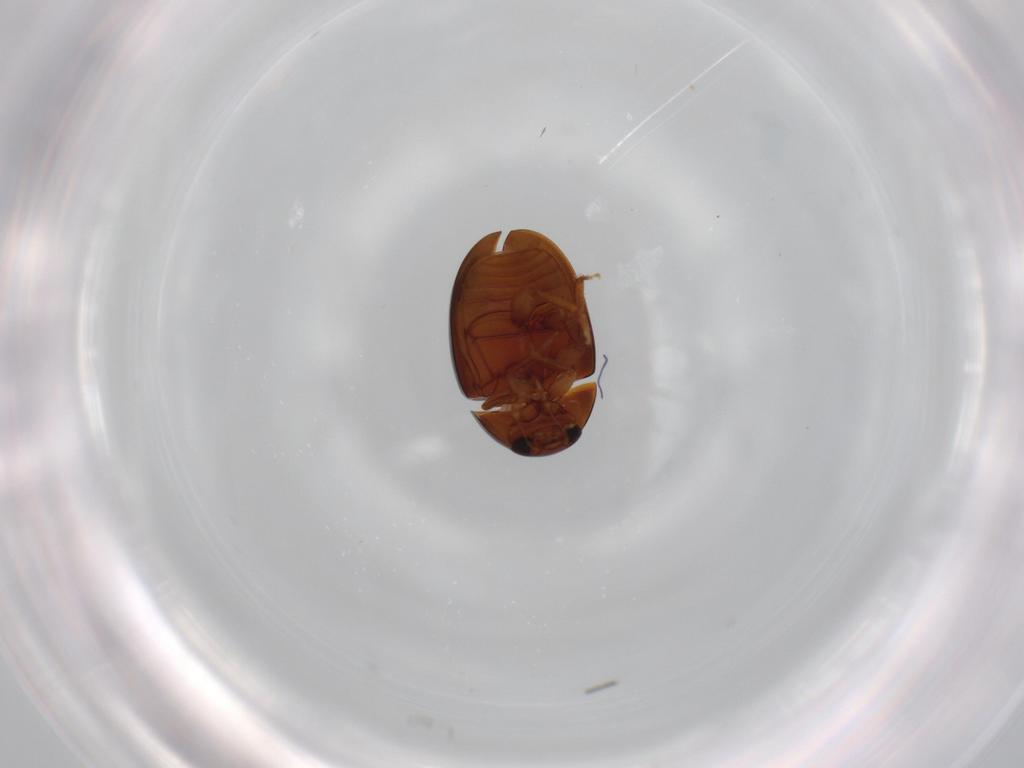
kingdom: Animalia
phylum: Arthropoda
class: Insecta
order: Coleoptera
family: Phalacridae
